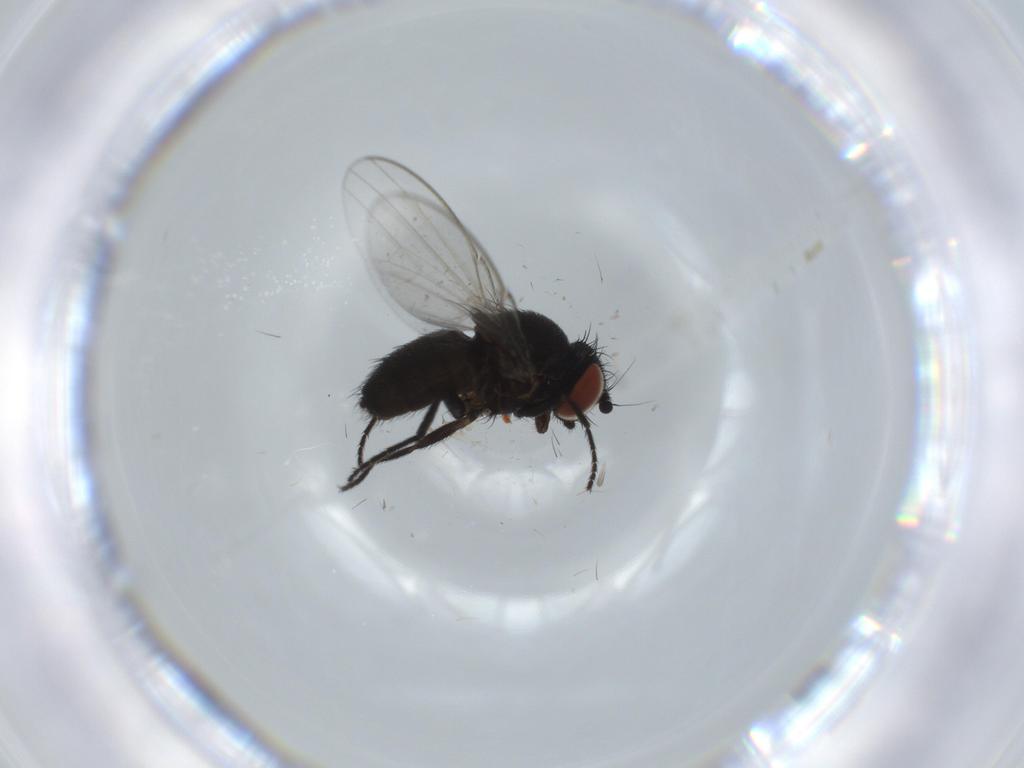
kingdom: Animalia
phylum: Arthropoda
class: Insecta
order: Diptera
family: Milichiidae
